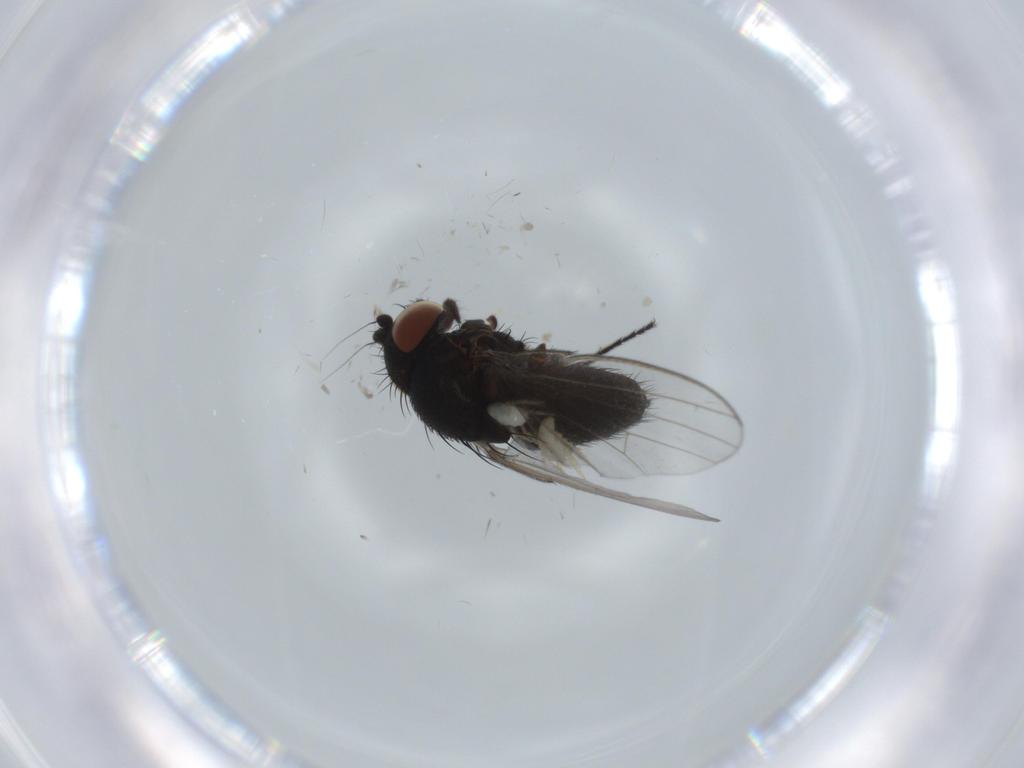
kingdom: Animalia
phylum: Arthropoda
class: Insecta
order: Diptera
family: Milichiidae
